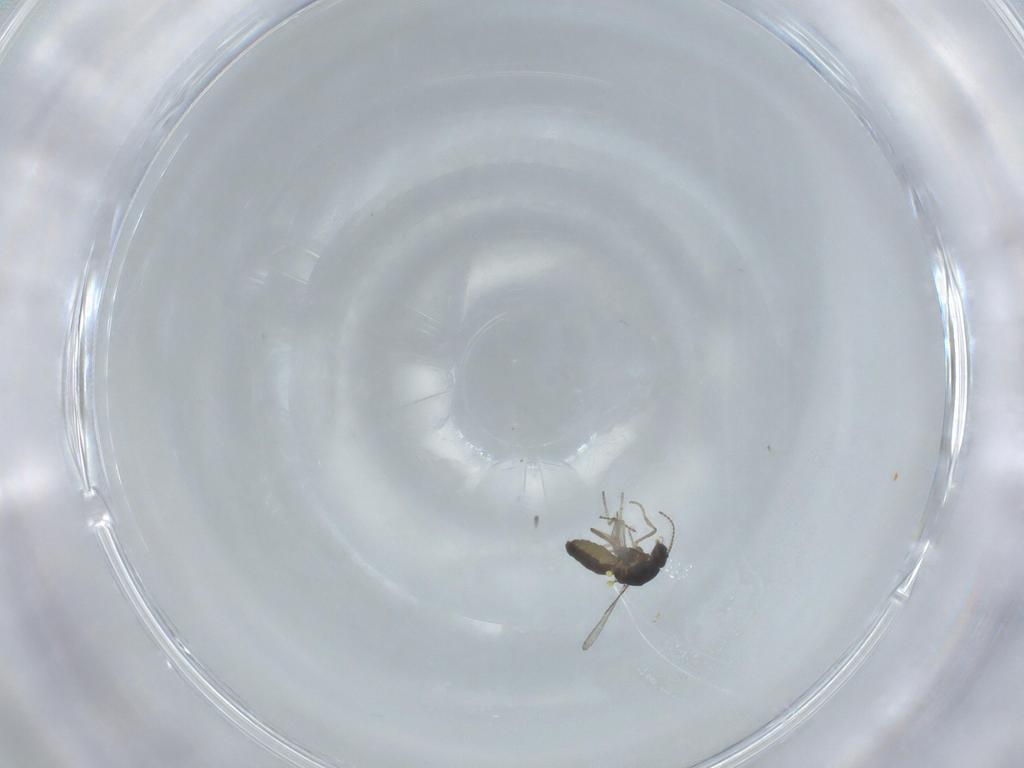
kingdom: Animalia
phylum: Arthropoda
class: Insecta
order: Diptera
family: Ceratopogonidae
